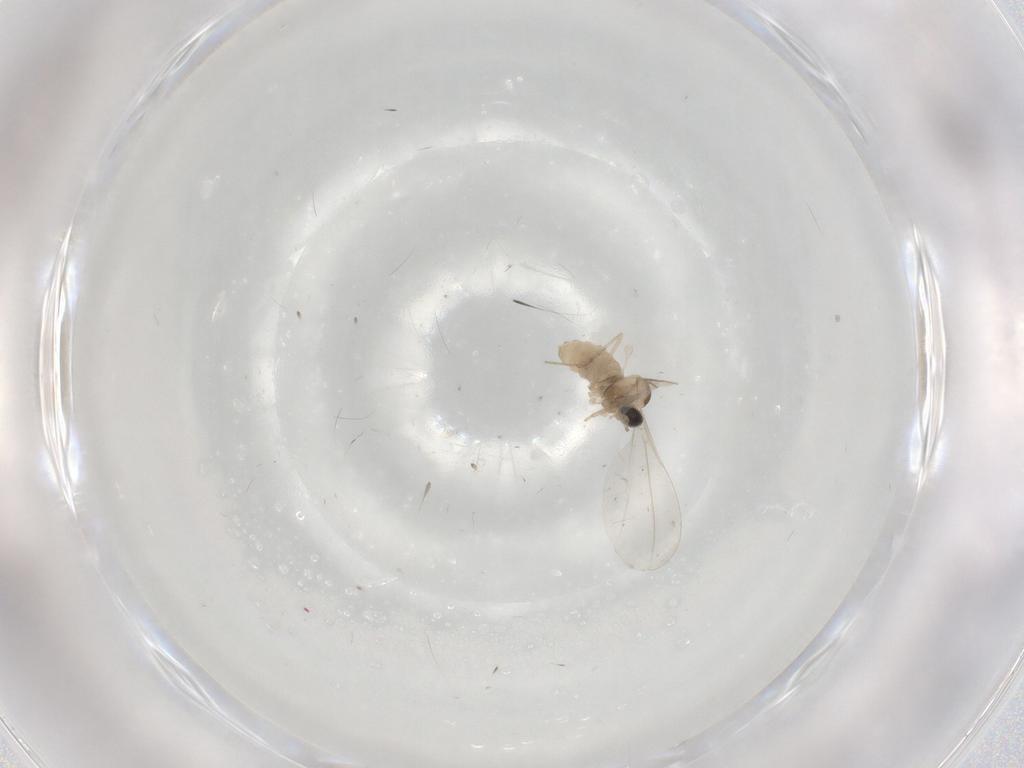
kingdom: Animalia
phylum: Arthropoda
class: Insecta
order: Diptera
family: Cecidomyiidae
